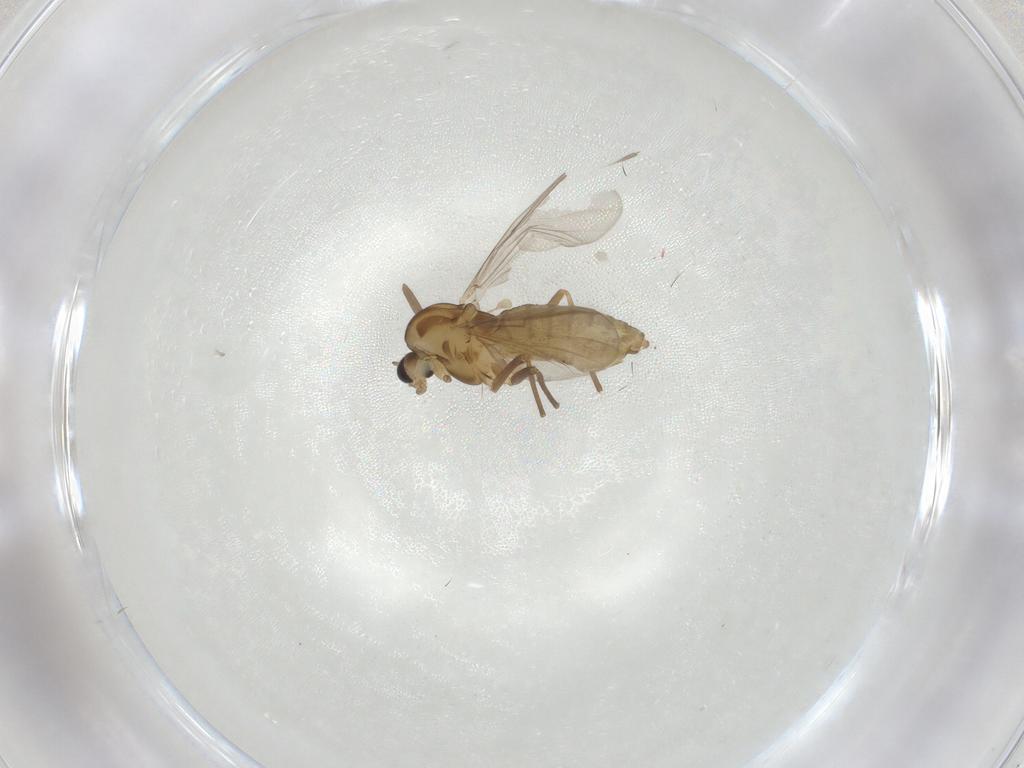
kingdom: Animalia
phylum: Arthropoda
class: Insecta
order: Diptera
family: Chironomidae
